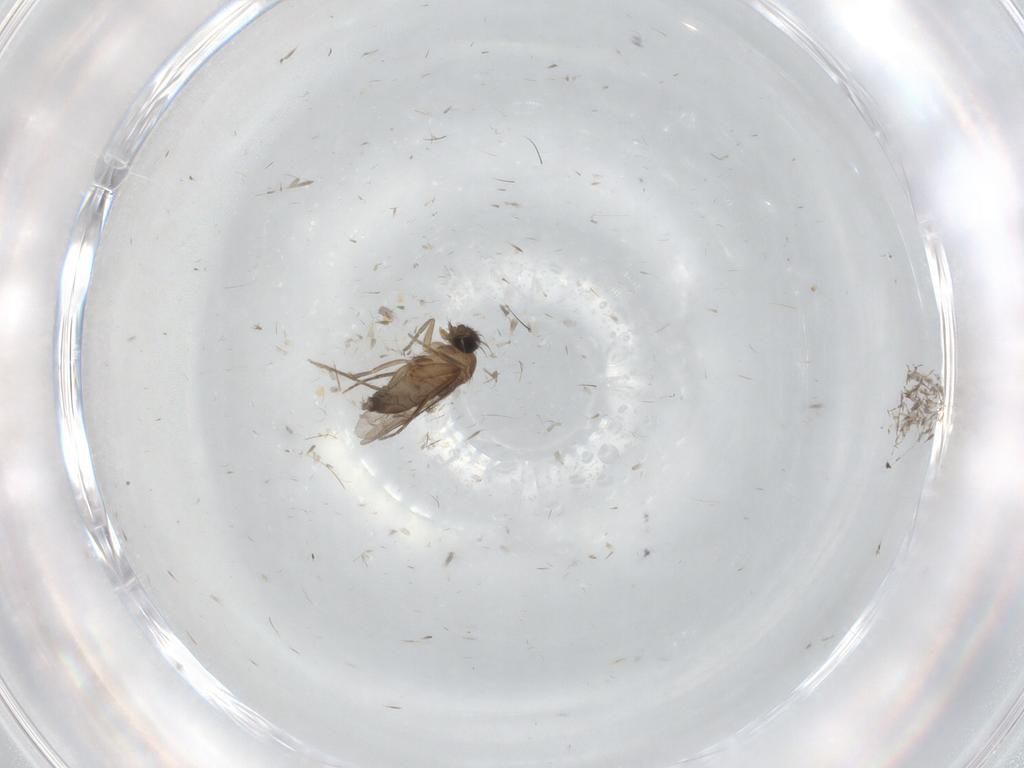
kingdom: Animalia
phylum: Arthropoda
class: Insecta
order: Diptera
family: Phoridae
